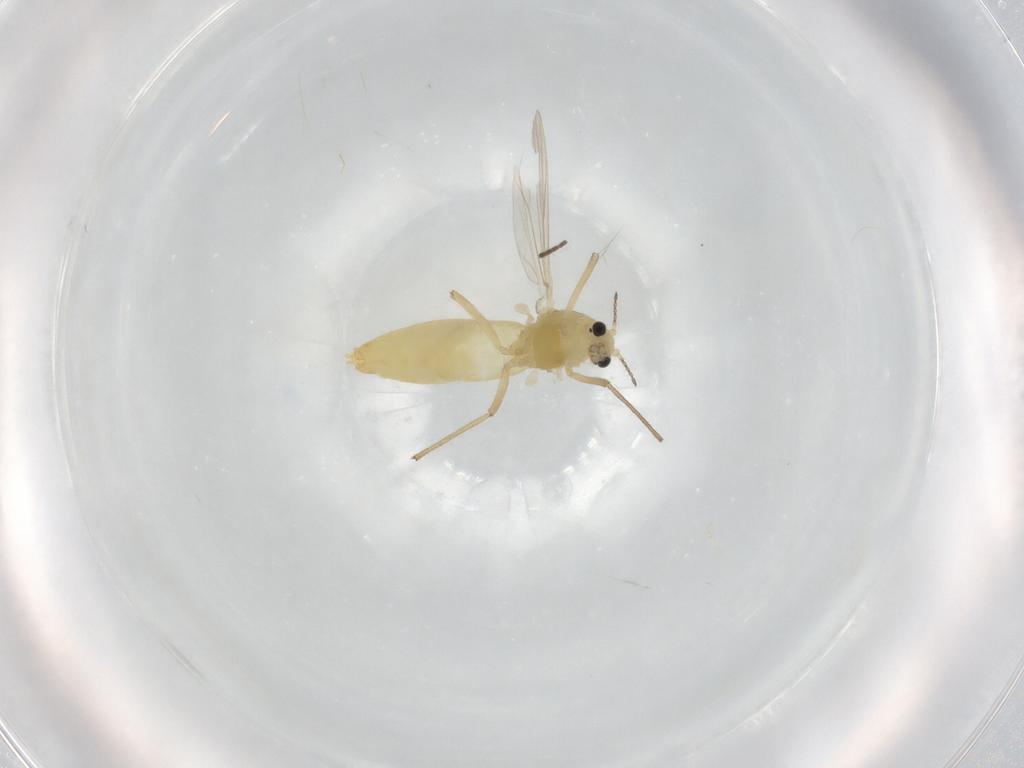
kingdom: Animalia
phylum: Arthropoda
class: Insecta
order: Diptera
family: Chironomidae
